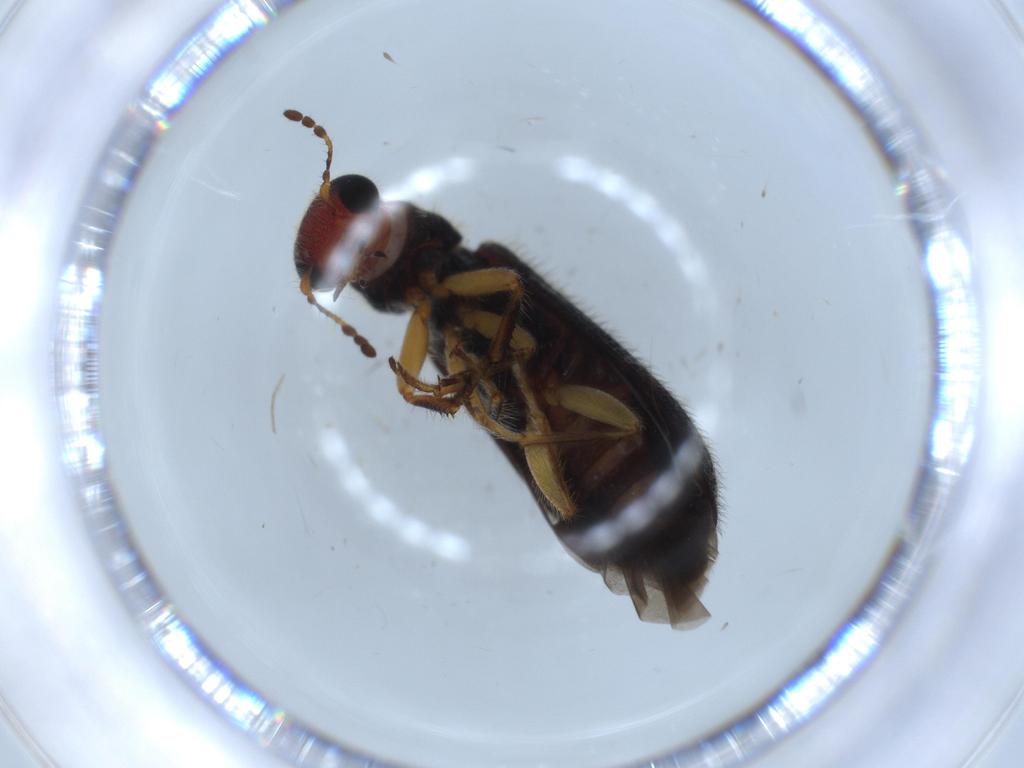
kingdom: Animalia
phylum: Arthropoda
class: Insecta
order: Coleoptera
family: Cleridae
